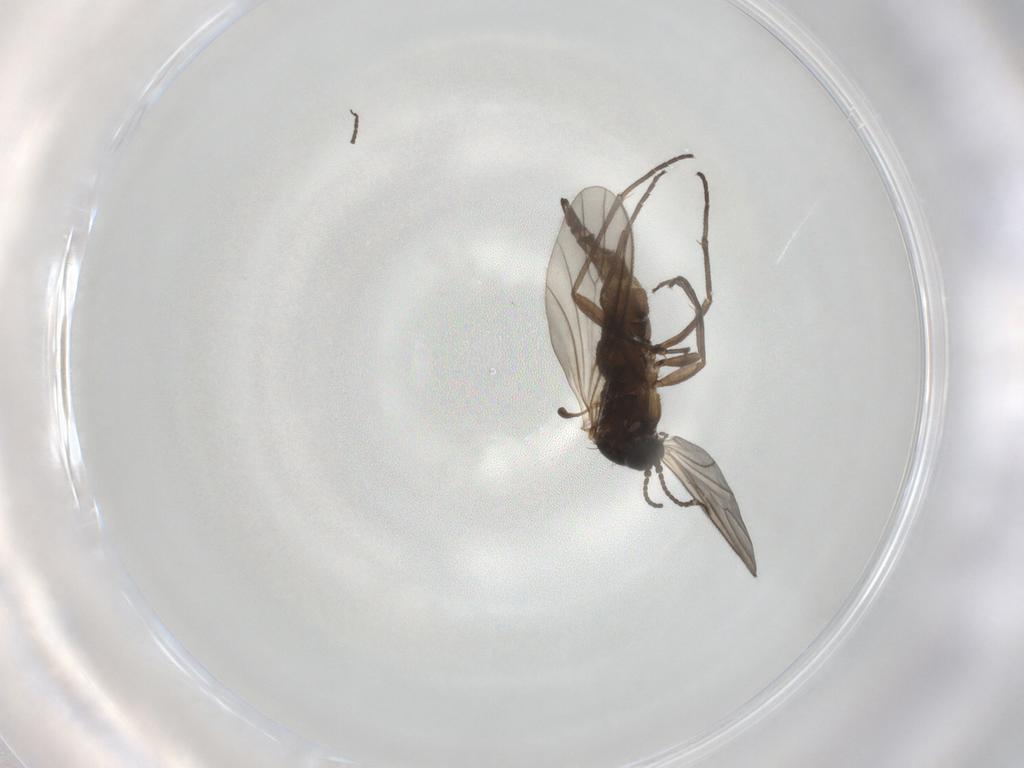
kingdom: Animalia
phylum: Arthropoda
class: Insecta
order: Diptera
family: Sciaridae
